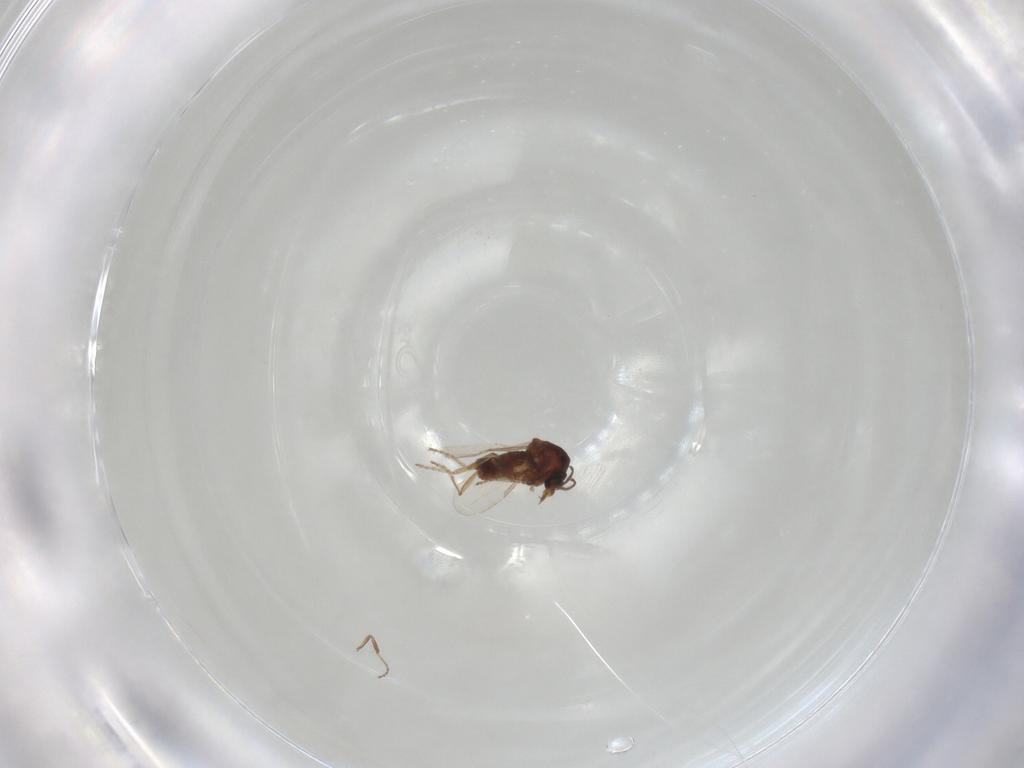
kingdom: Animalia
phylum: Arthropoda
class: Insecta
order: Diptera
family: Ceratopogonidae
